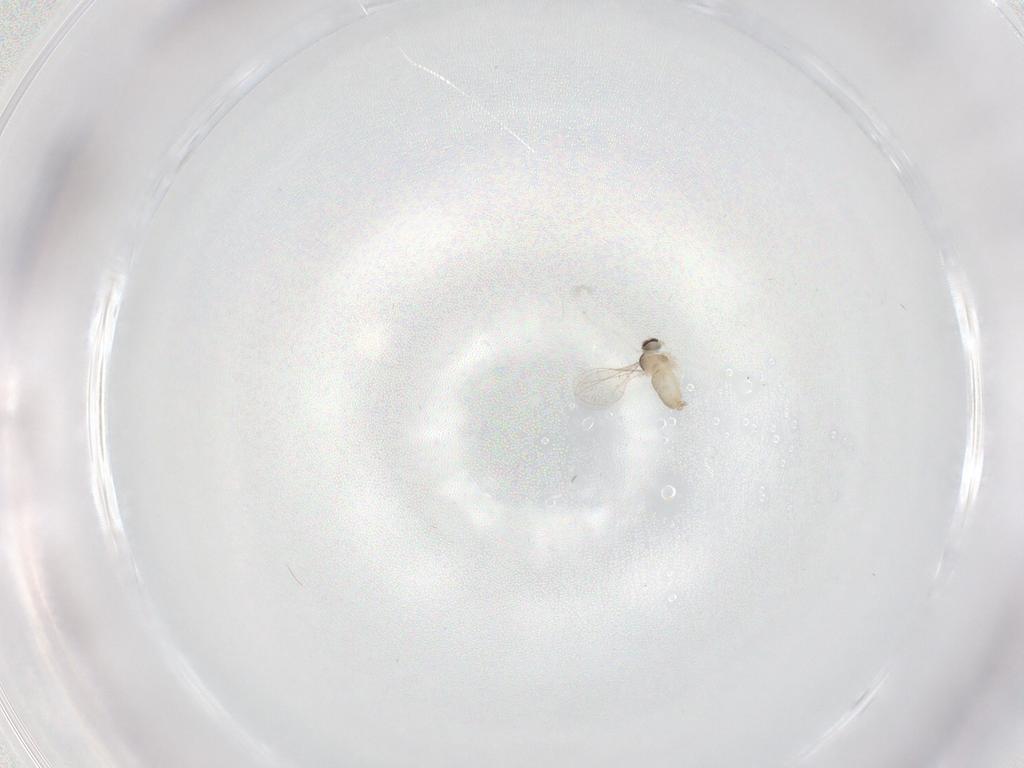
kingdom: Animalia
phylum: Arthropoda
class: Insecta
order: Diptera
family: Cecidomyiidae
